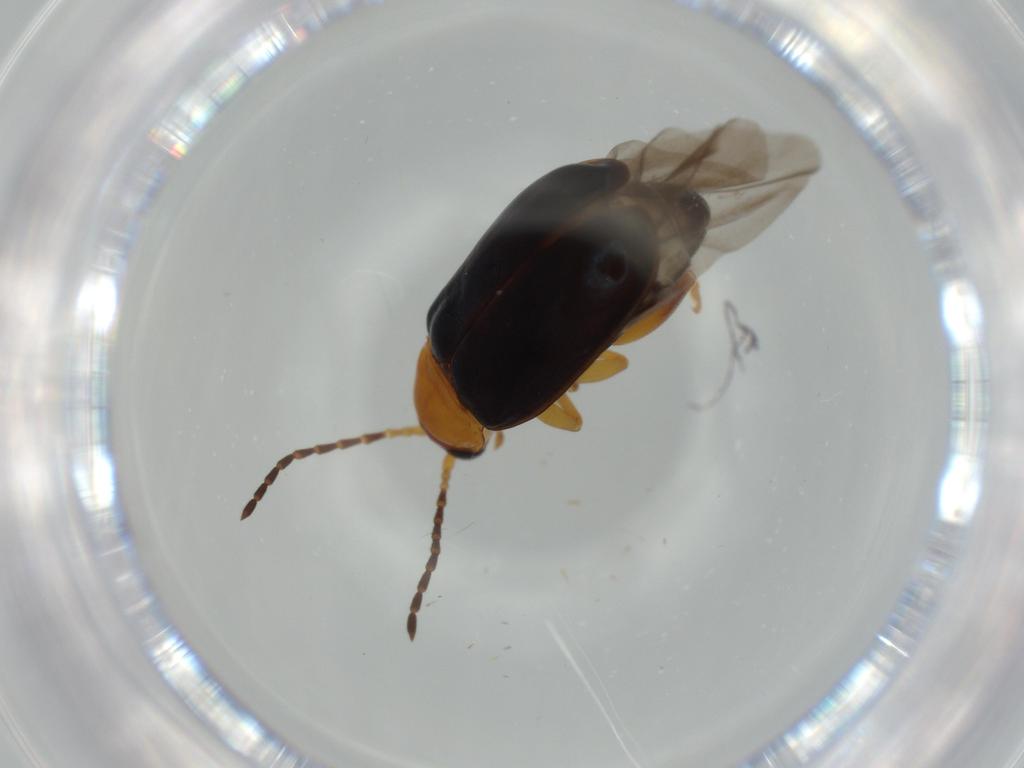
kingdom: Animalia
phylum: Arthropoda
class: Insecta
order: Coleoptera
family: Chrysomelidae
